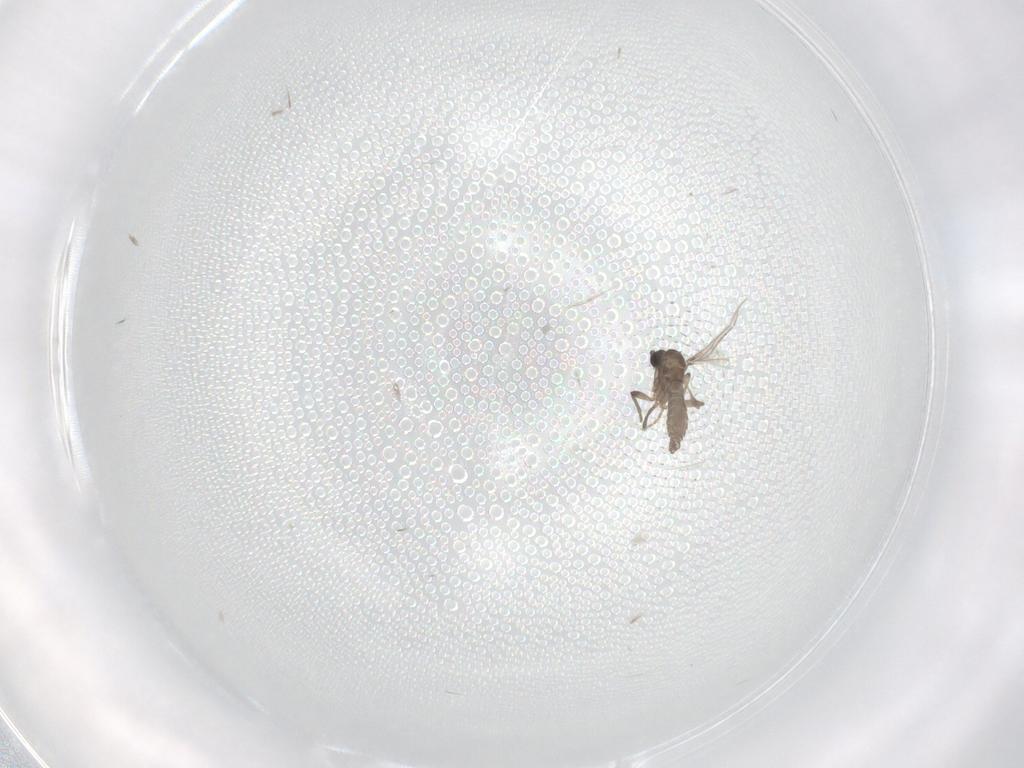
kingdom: Animalia
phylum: Arthropoda
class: Insecta
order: Diptera
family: Sciaridae
